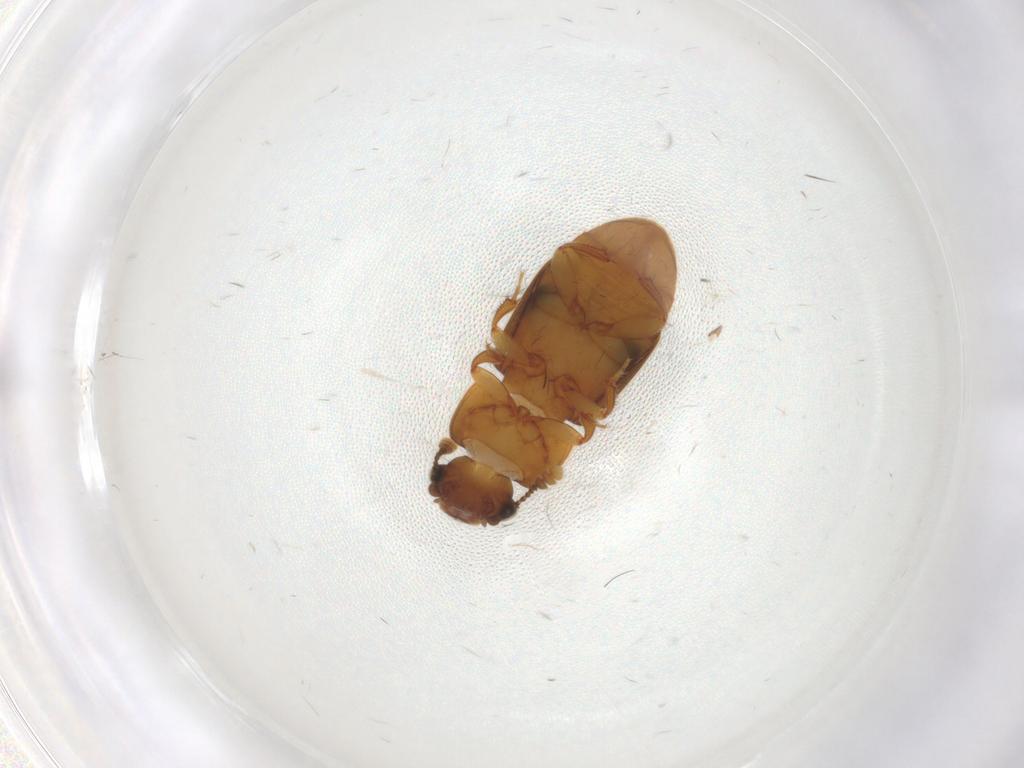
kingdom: Animalia
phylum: Arthropoda
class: Insecta
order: Coleoptera
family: Nitidulidae
